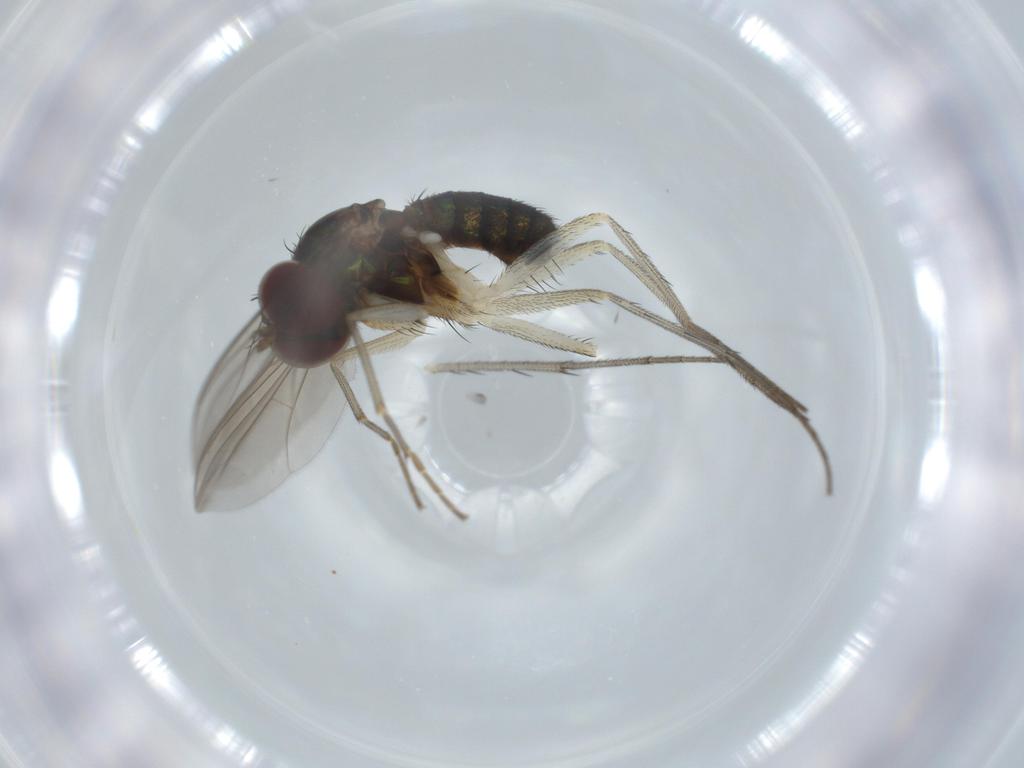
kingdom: Animalia
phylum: Arthropoda
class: Insecta
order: Diptera
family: Dolichopodidae
